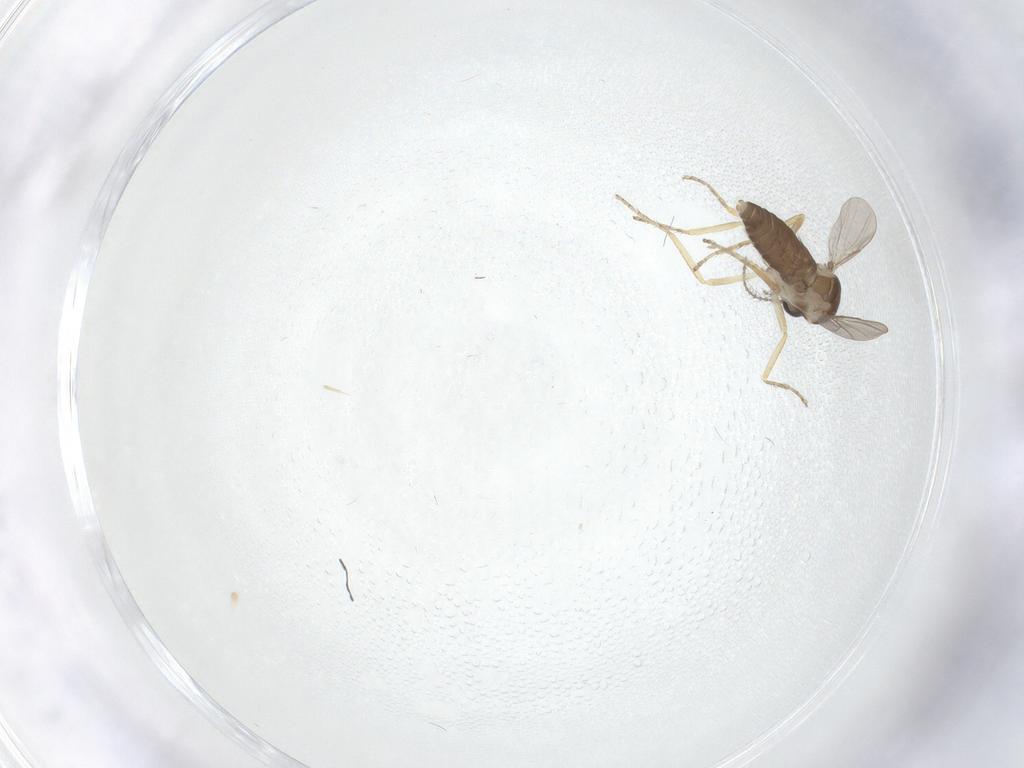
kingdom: Animalia
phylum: Arthropoda
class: Insecta
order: Diptera
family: Ceratopogonidae
